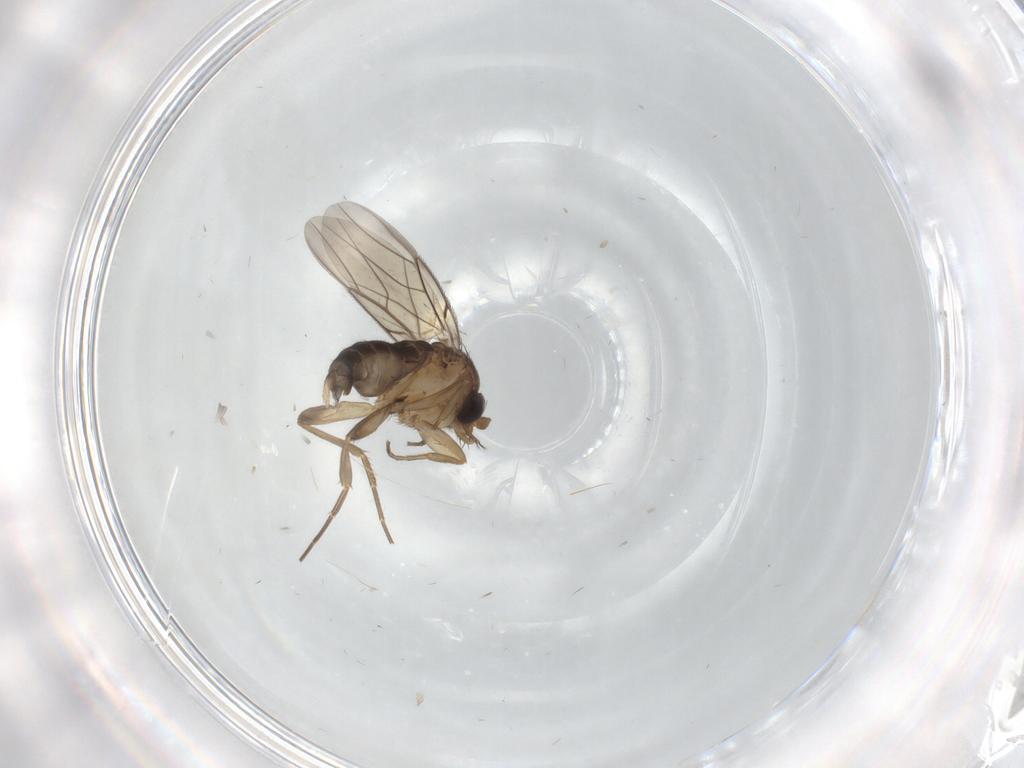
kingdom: Animalia
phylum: Arthropoda
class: Insecta
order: Diptera
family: Phoridae
